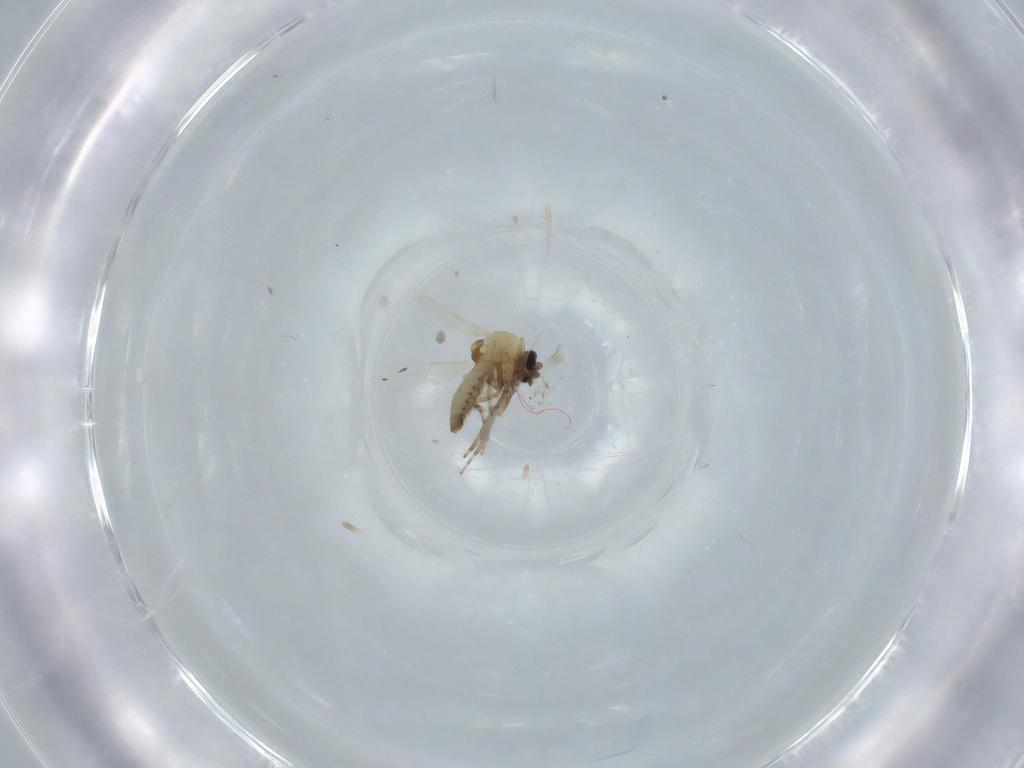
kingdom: Animalia
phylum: Arthropoda
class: Insecta
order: Diptera
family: Ceratopogonidae
